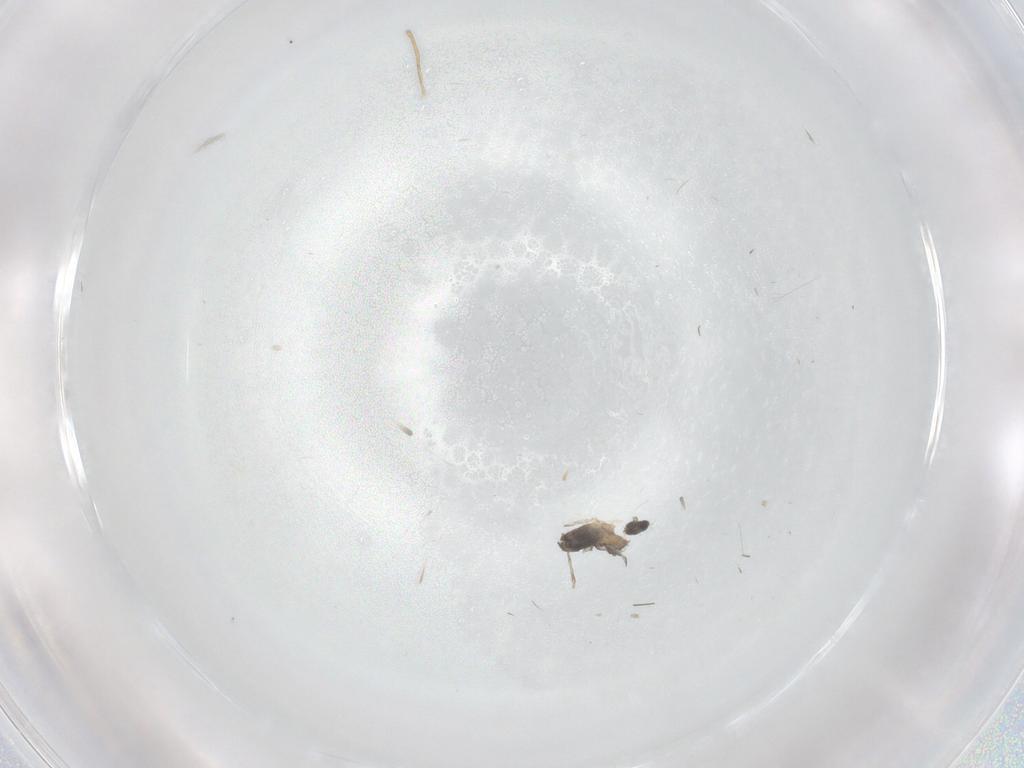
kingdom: Animalia
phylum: Arthropoda
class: Insecta
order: Diptera
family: Cecidomyiidae
